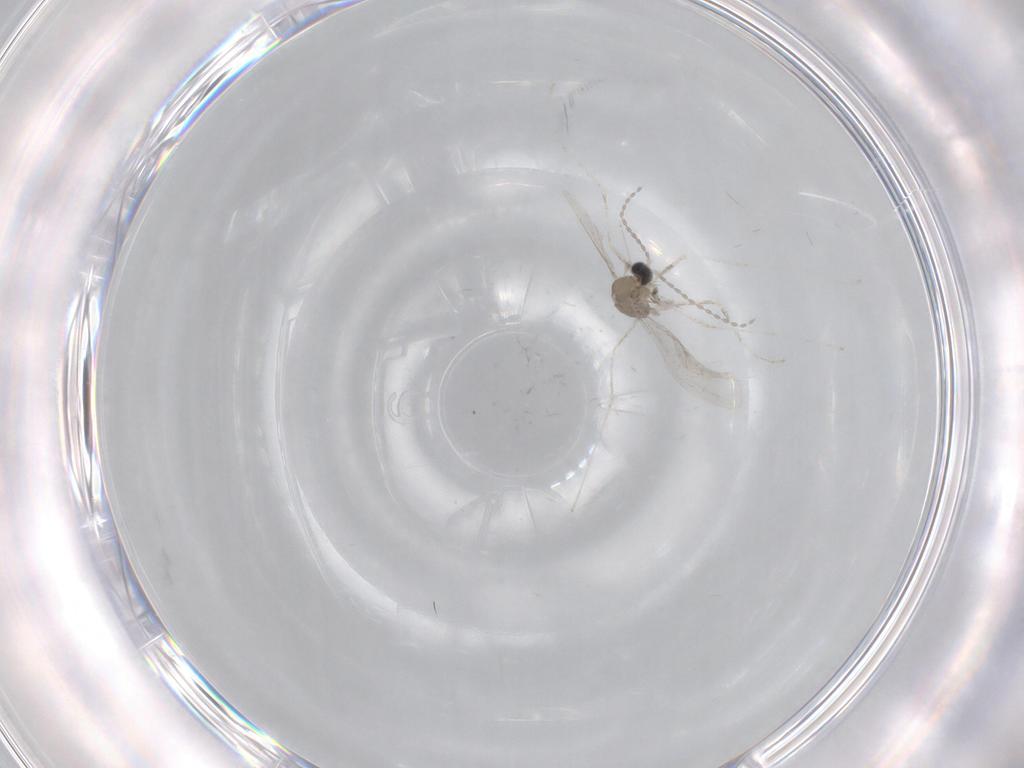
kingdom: Animalia
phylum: Arthropoda
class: Insecta
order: Diptera
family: Cecidomyiidae
